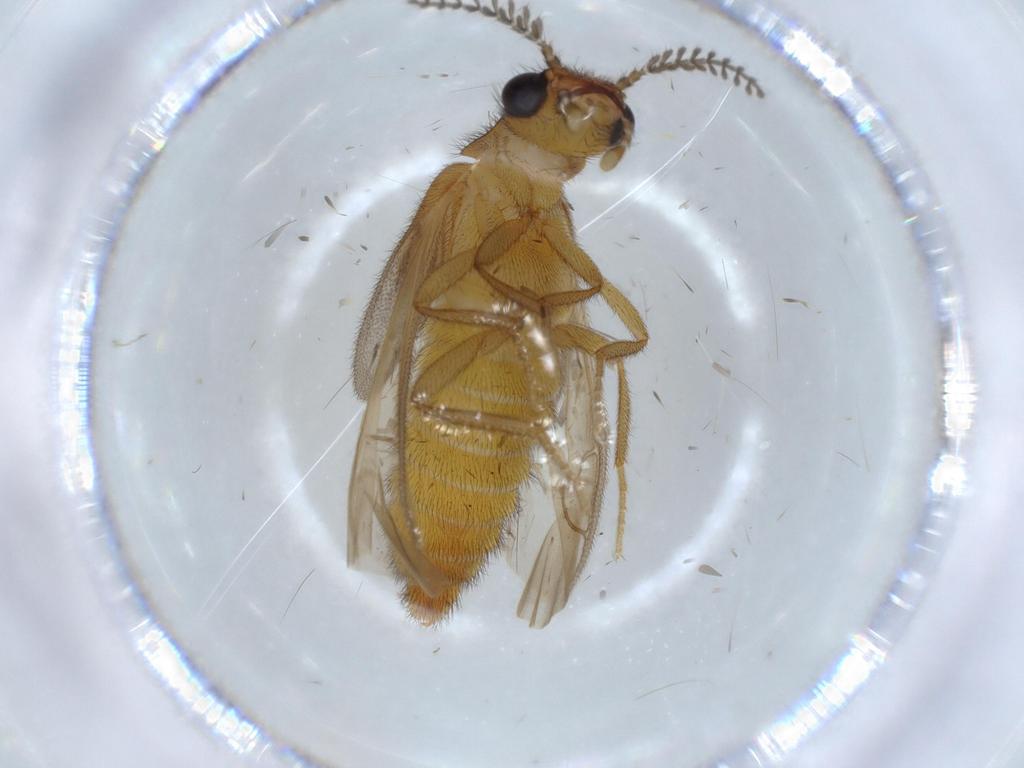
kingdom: Animalia
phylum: Arthropoda
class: Insecta
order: Coleoptera
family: Chrysomelidae
